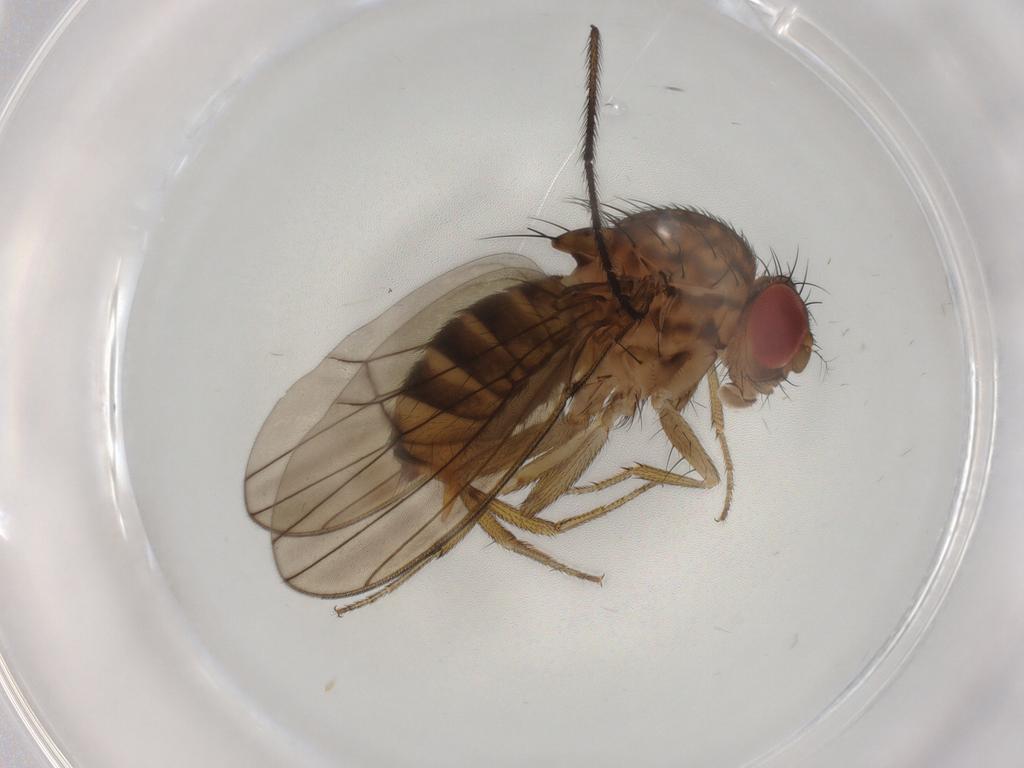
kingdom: Animalia
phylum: Arthropoda
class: Insecta
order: Diptera
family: Drosophilidae
